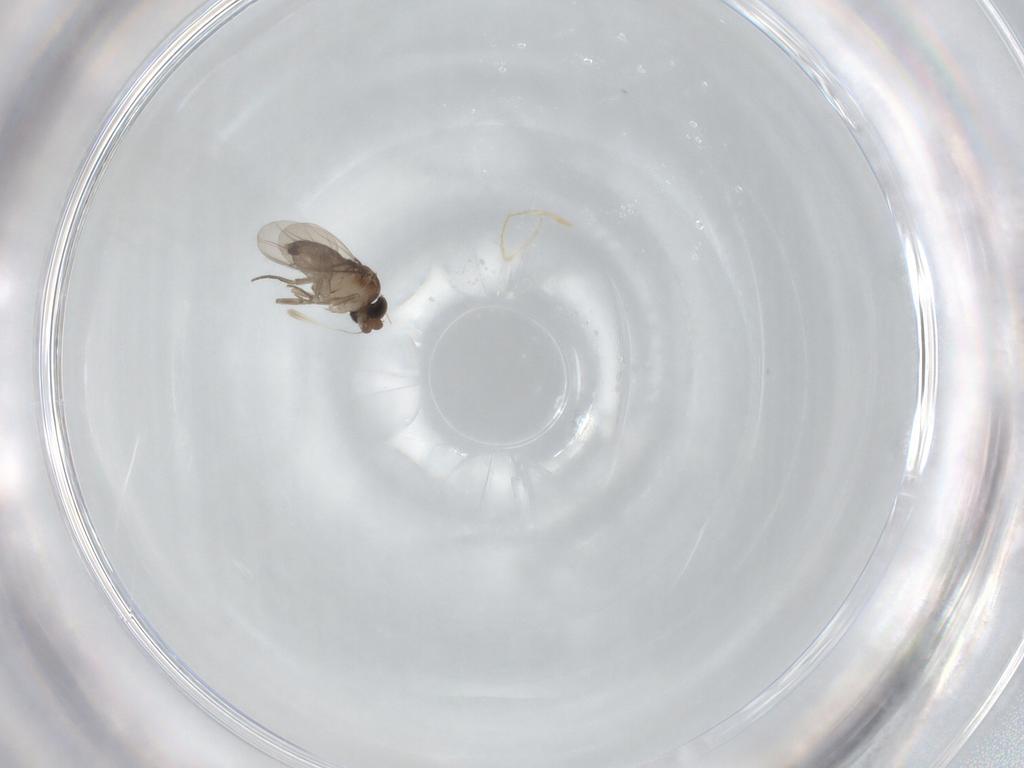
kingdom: Animalia
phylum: Arthropoda
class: Insecta
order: Diptera
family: Phoridae
